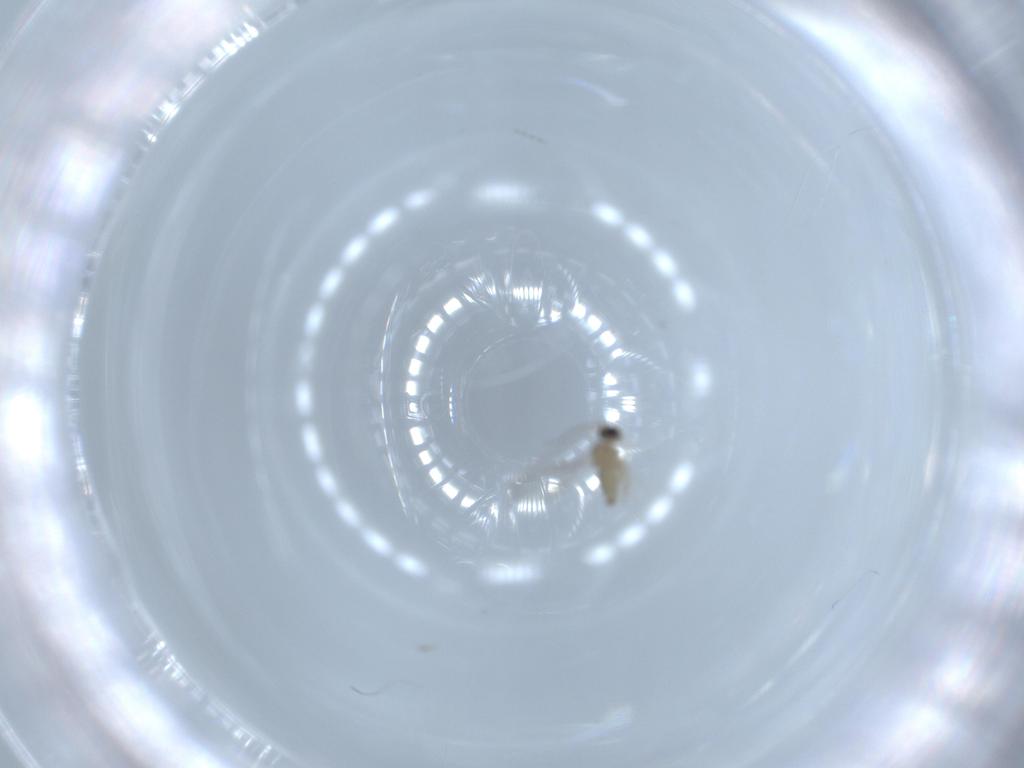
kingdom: Animalia
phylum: Arthropoda
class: Insecta
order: Diptera
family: Cecidomyiidae
